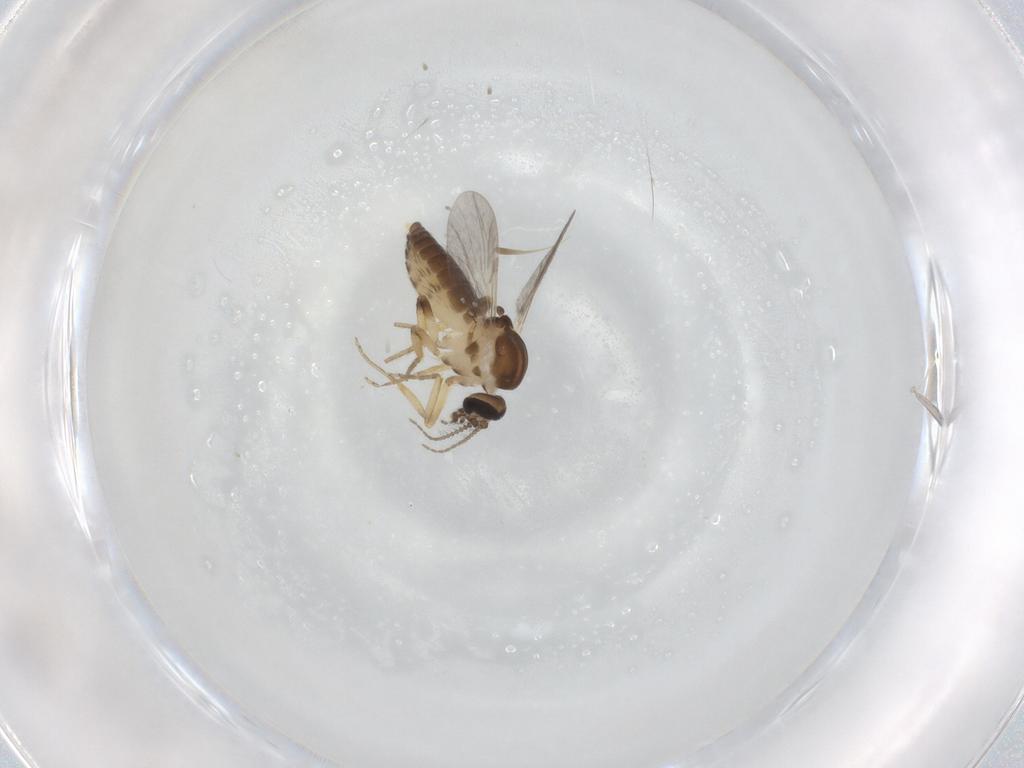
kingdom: Animalia
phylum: Arthropoda
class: Insecta
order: Diptera
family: Ceratopogonidae
